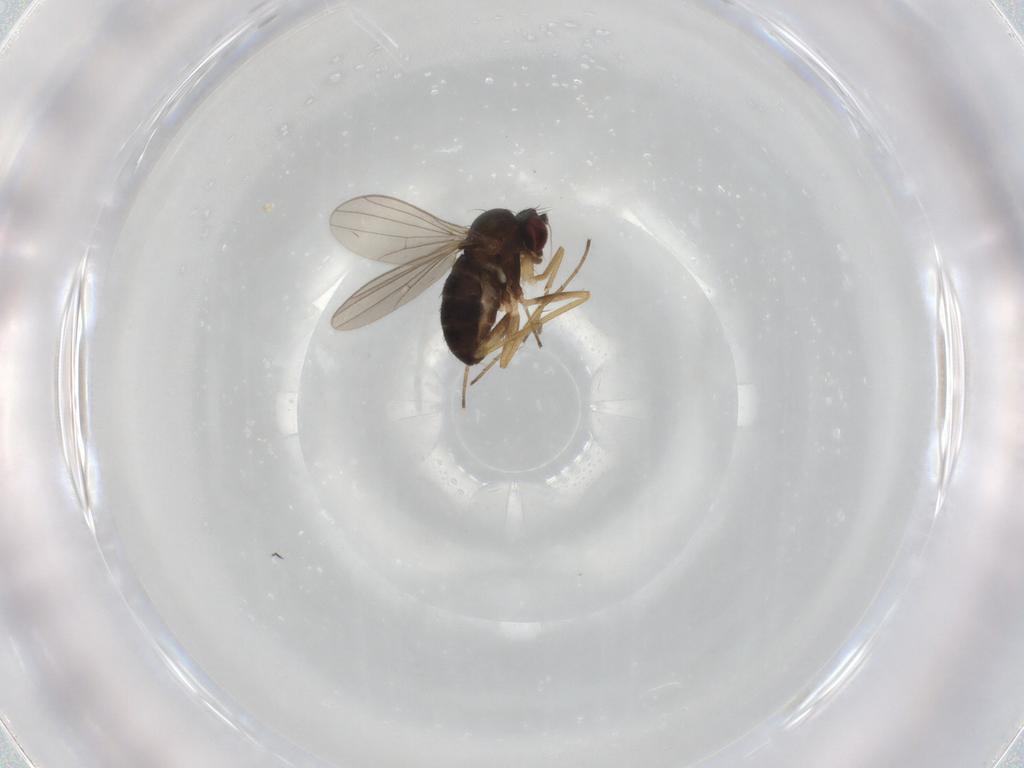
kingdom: Animalia
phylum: Arthropoda
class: Insecta
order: Diptera
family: Dolichopodidae
